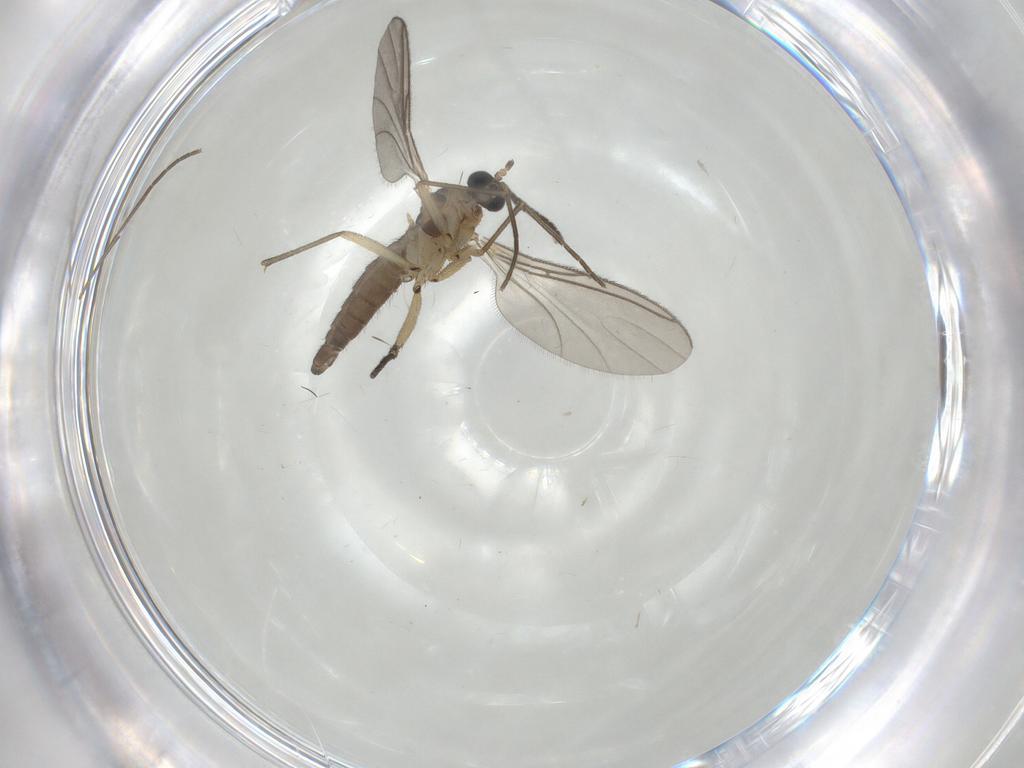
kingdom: Animalia
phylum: Arthropoda
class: Insecta
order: Diptera
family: Sciaridae
